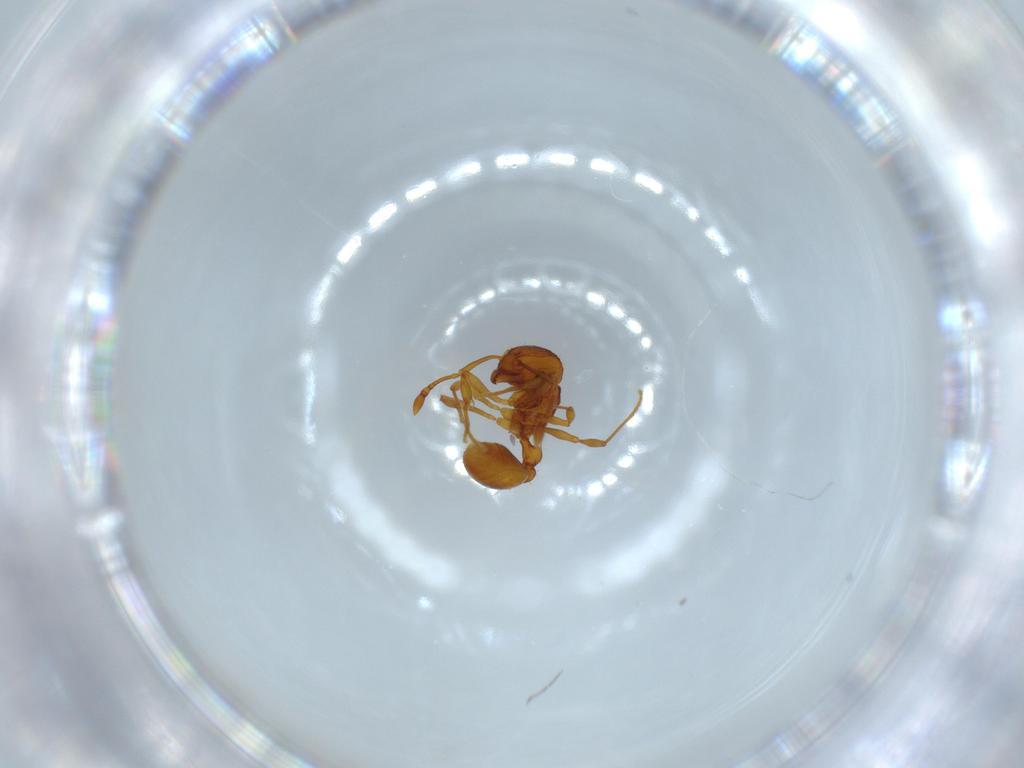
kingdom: Animalia
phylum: Arthropoda
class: Insecta
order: Hymenoptera
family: Formicidae
